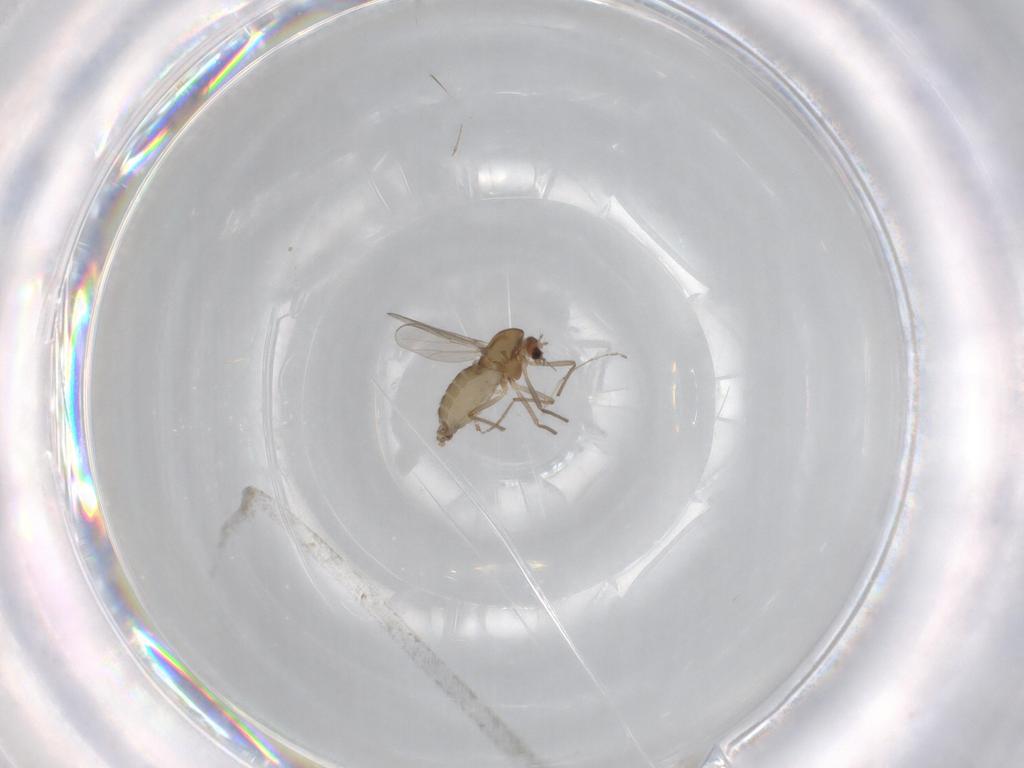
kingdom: Animalia
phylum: Arthropoda
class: Insecta
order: Diptera
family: Chironomidae
